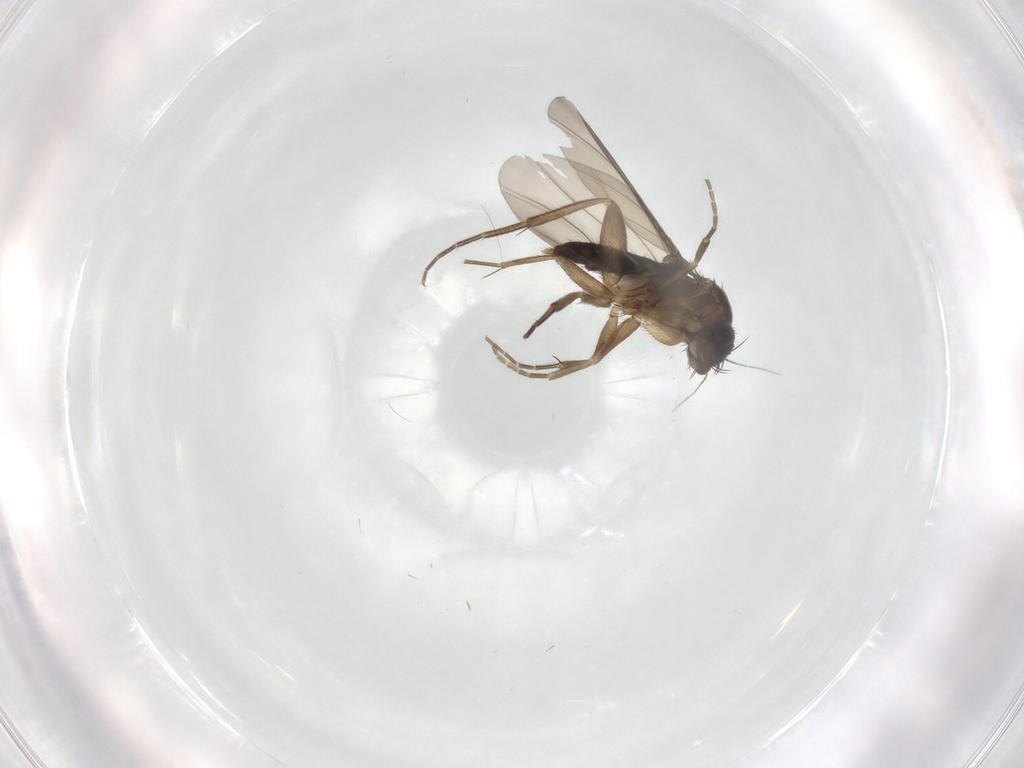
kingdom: Animalia
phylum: Arthropoda
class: Insecta
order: Diptera
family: Phoridae
